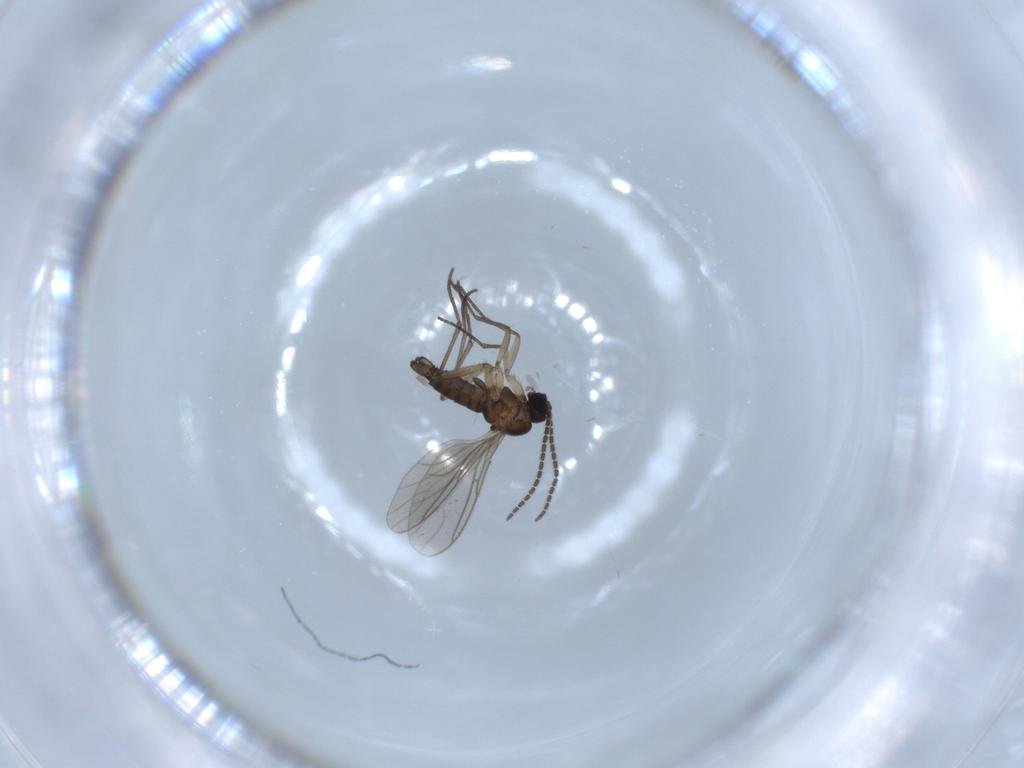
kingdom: Animalia
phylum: Arthropoda
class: Insecta
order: Diptera
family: Sciaridae
